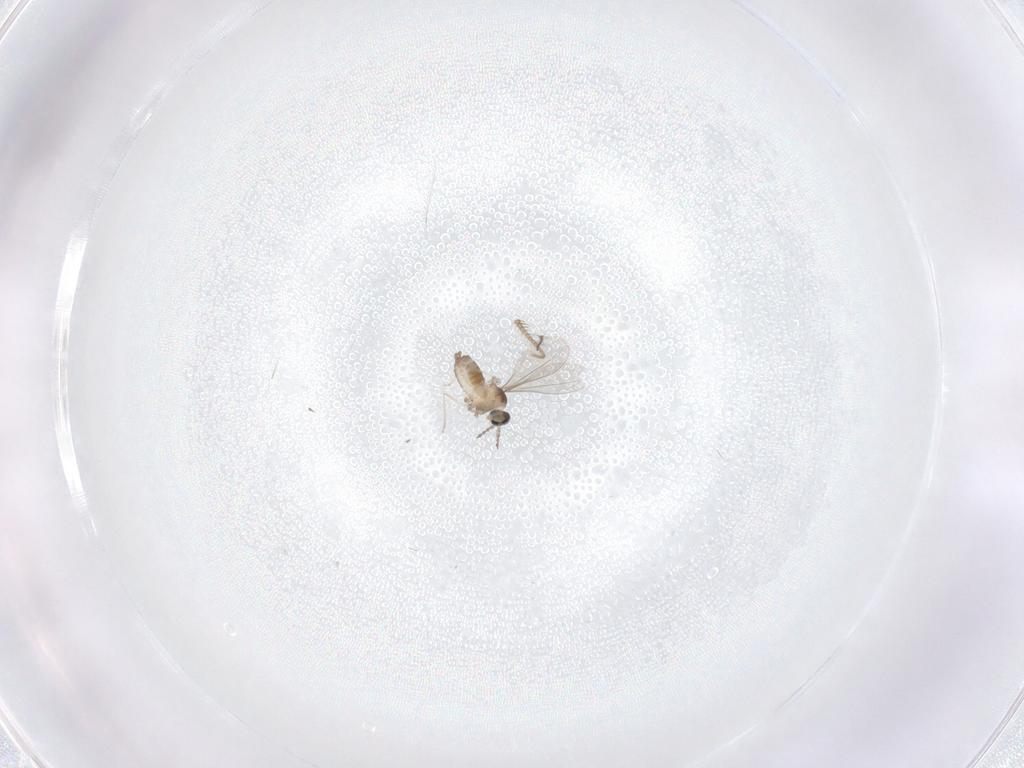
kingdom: Animalia
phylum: Arthropoda
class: Insecta
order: Diptera
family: Cecidomyiidae
